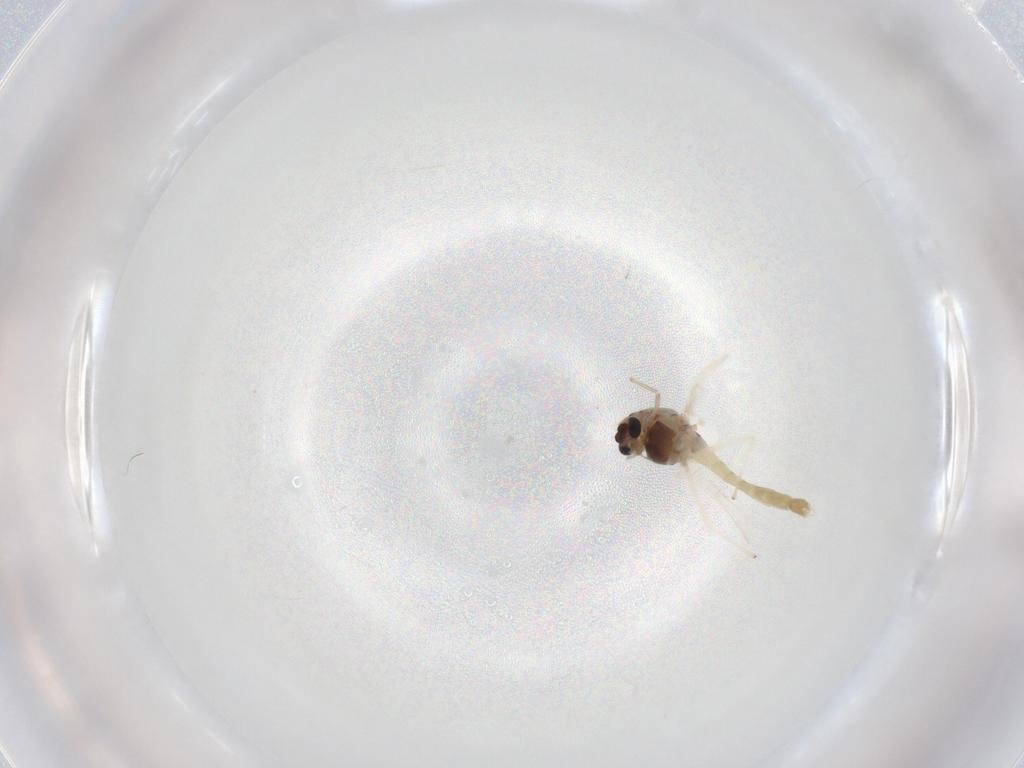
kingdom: Animalia
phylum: Arthropoda
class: Insecta
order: Diptera
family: Chironomidae
